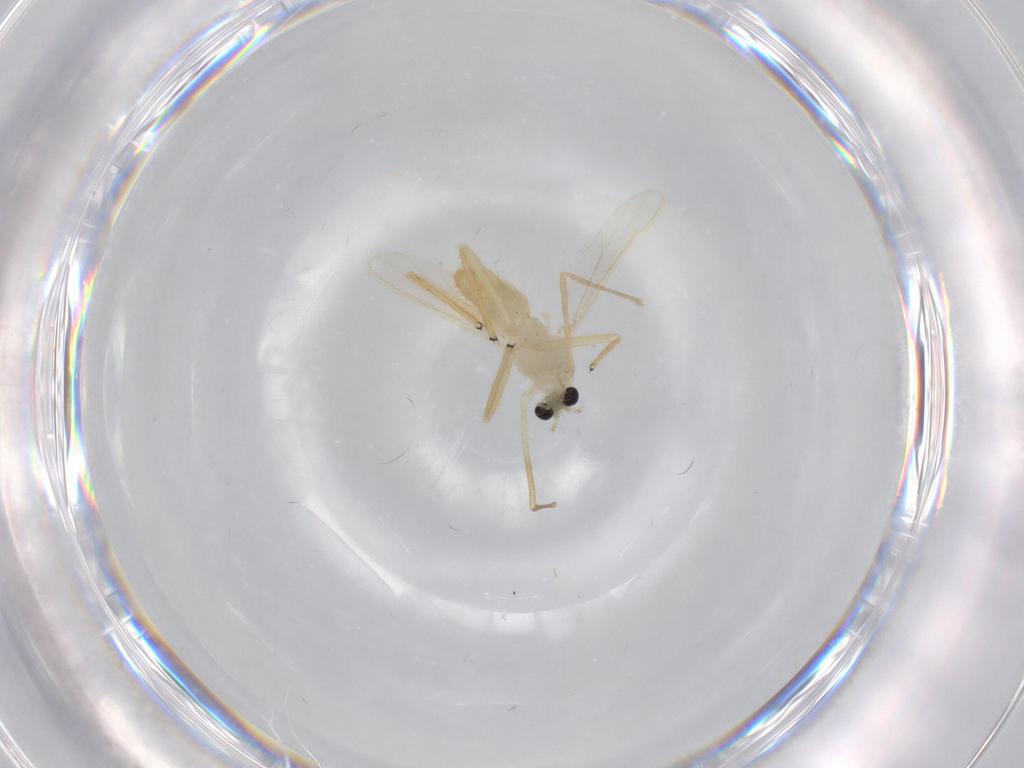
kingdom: Animalia
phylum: Arthropoda
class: Insecta
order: Diptera
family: Chironomidae
